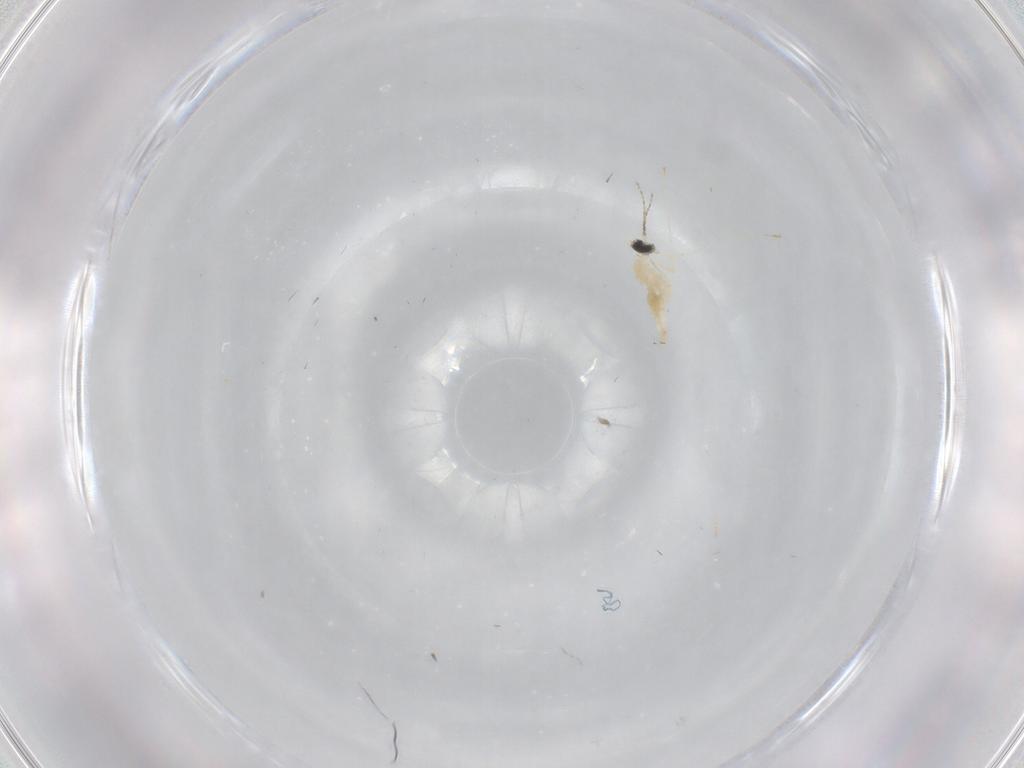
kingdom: Animalia
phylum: Arthropoda
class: Insecta
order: Diptera
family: Cecidomyiidae
